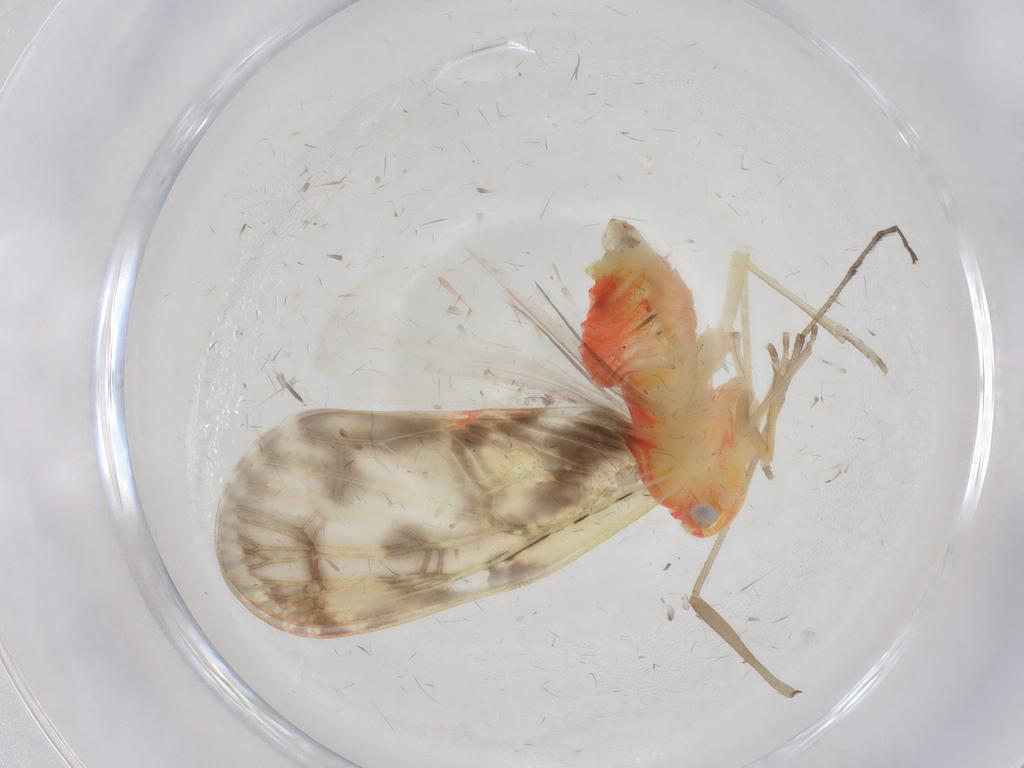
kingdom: Animalia
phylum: Arthropoda
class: Insecta
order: Hemiptera
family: Derbidae
